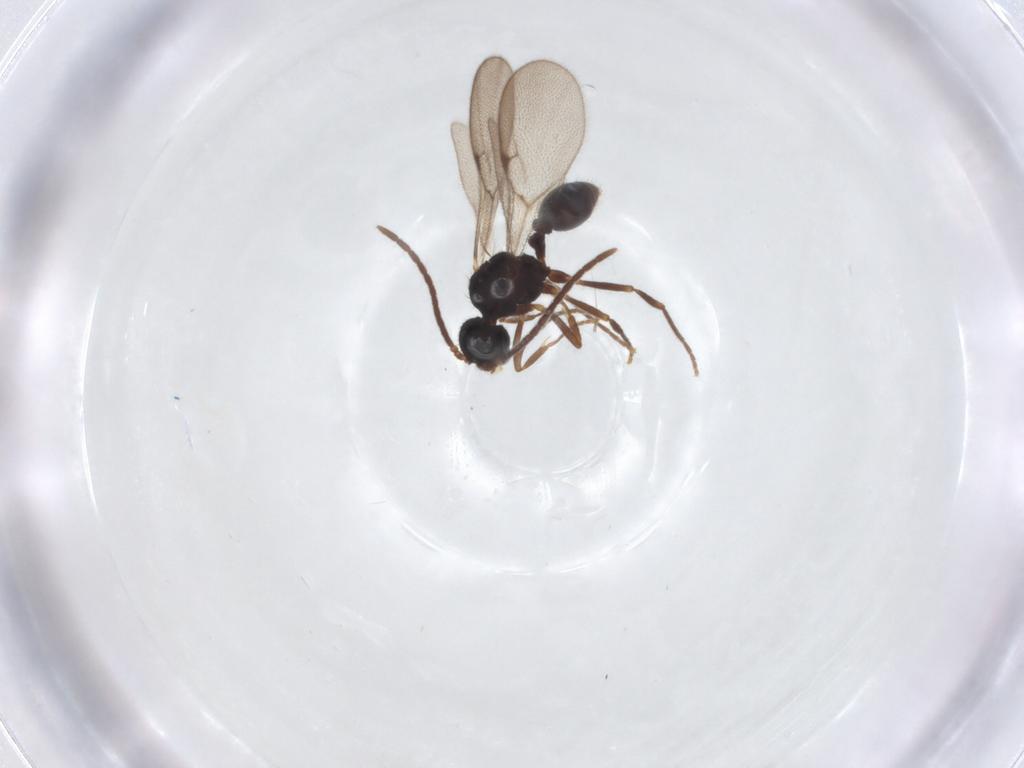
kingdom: Animalia
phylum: Arthropoda
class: Insecta
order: Hymenoptera
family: Formicidae
